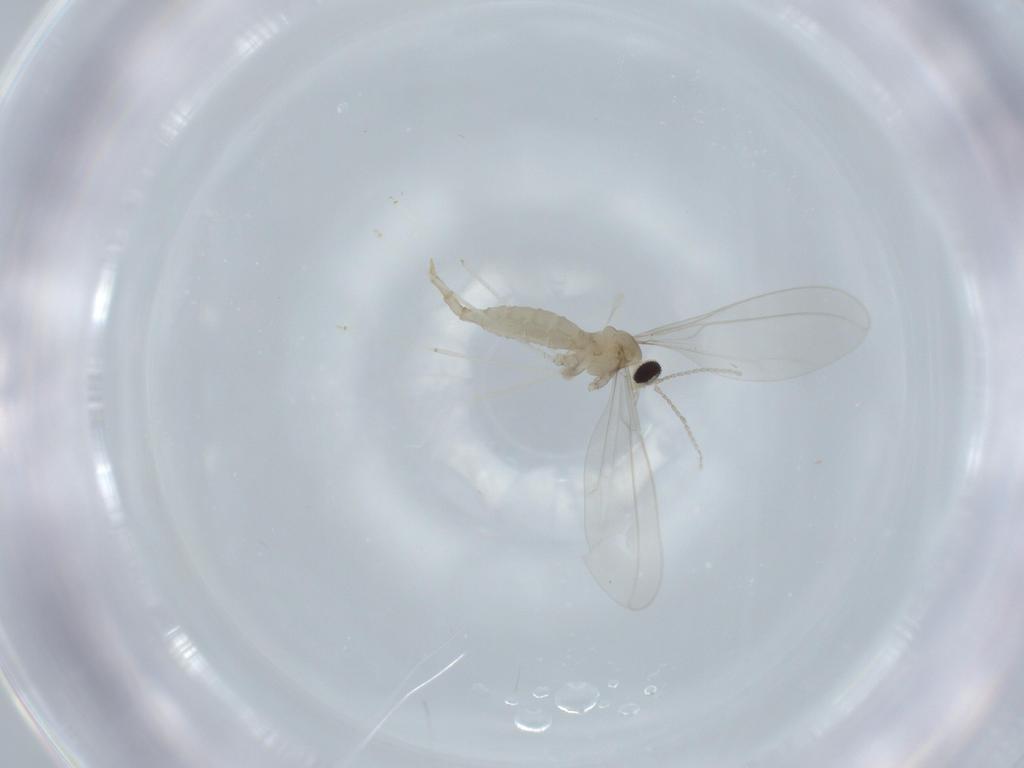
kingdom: Animalia
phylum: Arthropoda
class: Insecta
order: Diptera
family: Cecidomyiidae
